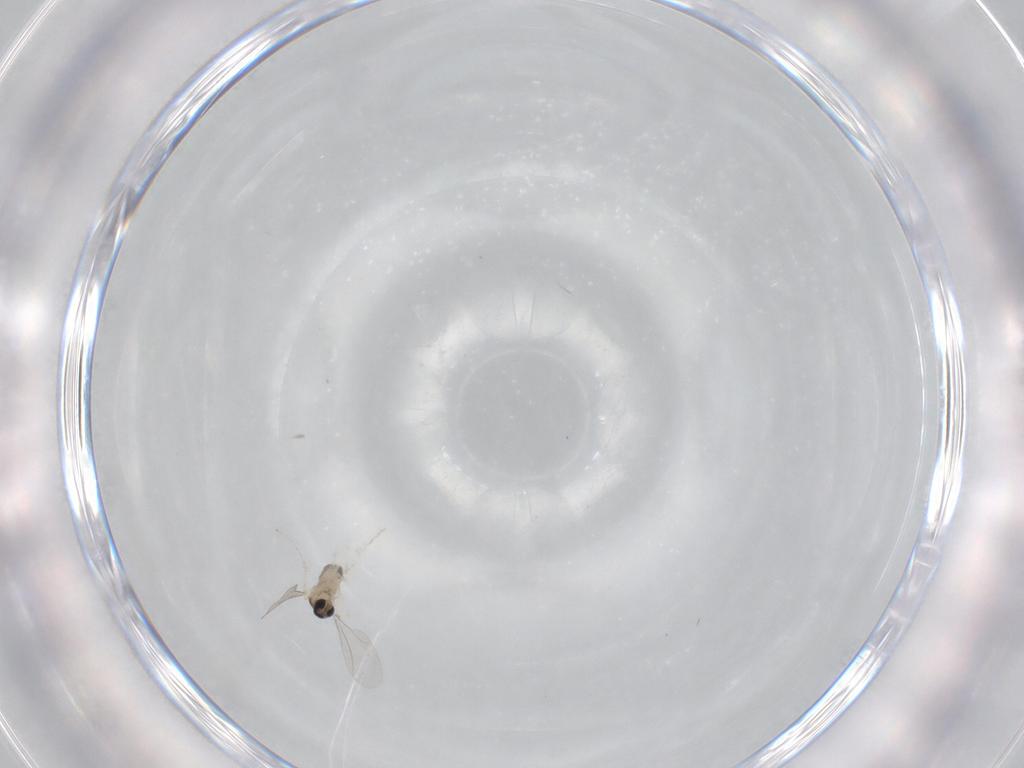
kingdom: Animalia
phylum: Arthropoda
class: Insecta
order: Diptera
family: Cecidomyiidae
